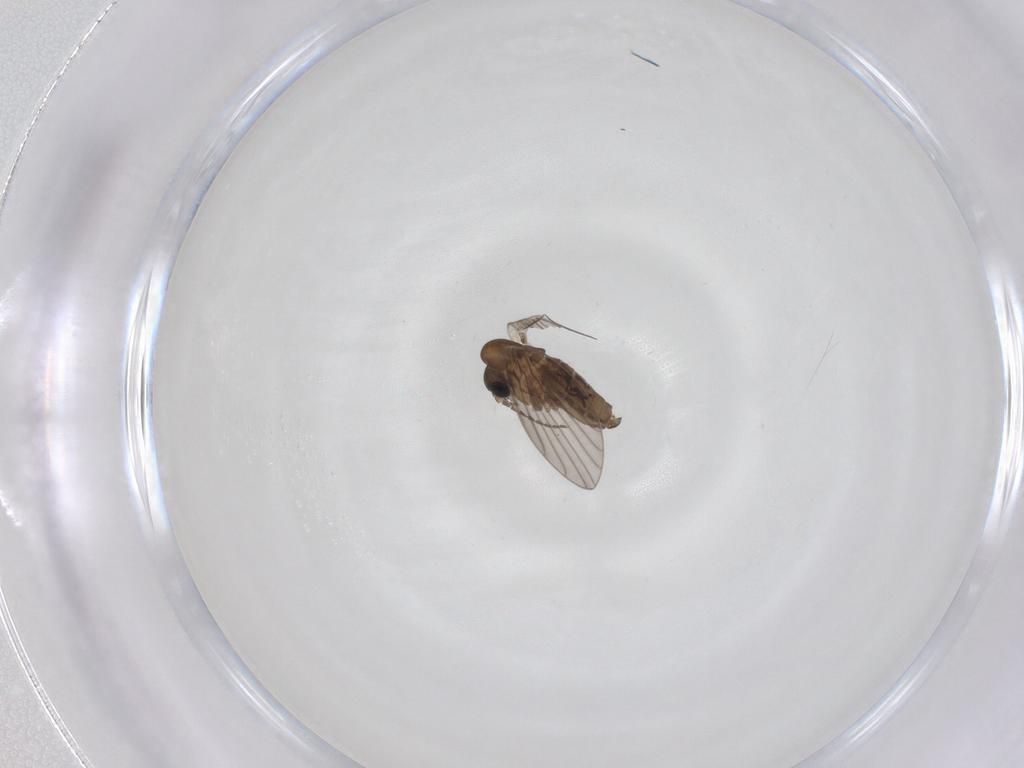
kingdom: Animalia
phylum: Arthropoda
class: Insecta
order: Diptera
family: Psychodidae
